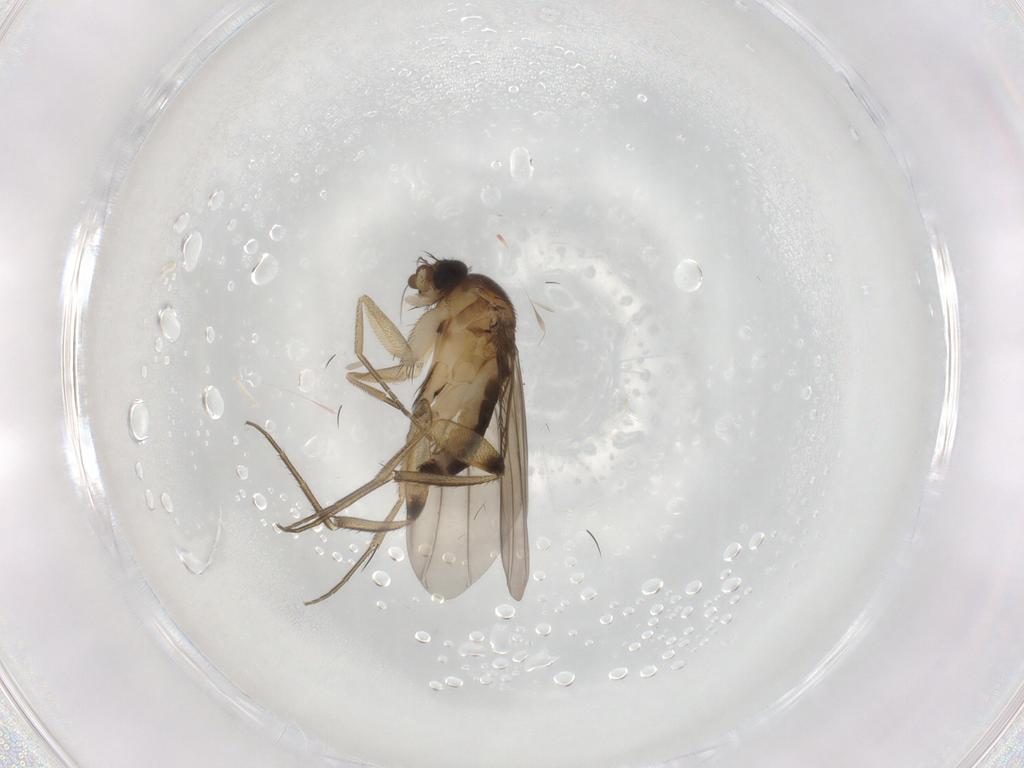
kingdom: Animalia
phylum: Arthropoda
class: Insecta
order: Diptera
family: Phoridae
